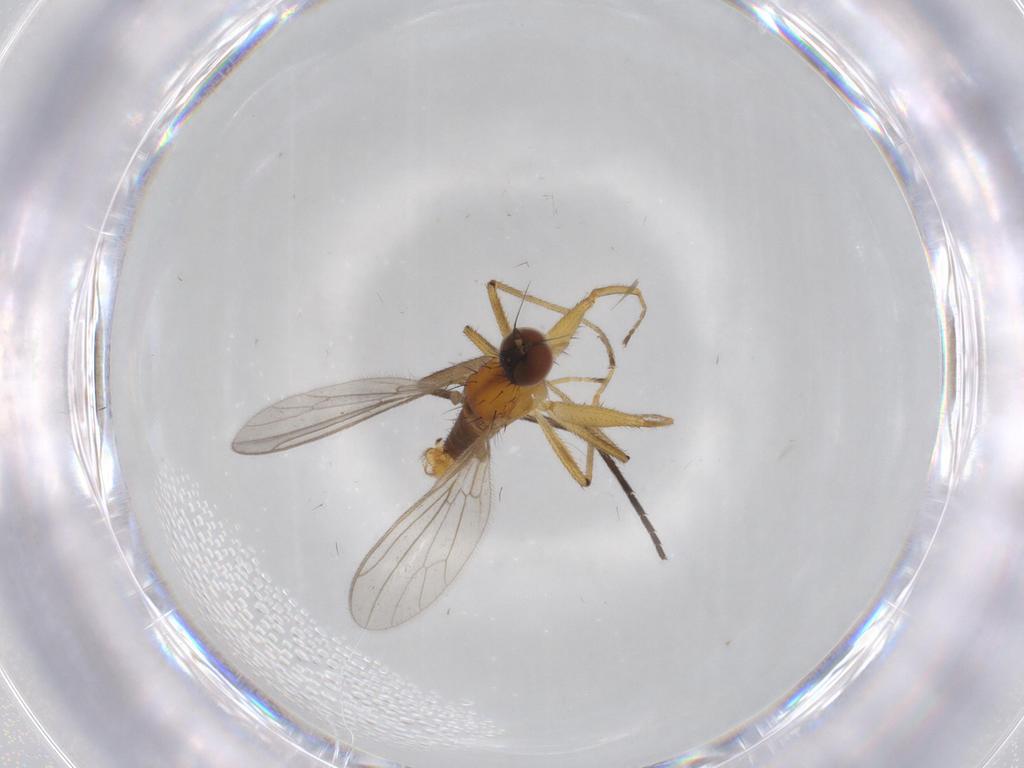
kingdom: Animalia
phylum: Arthropoda
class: Insecta
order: Diptera
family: Empididae
